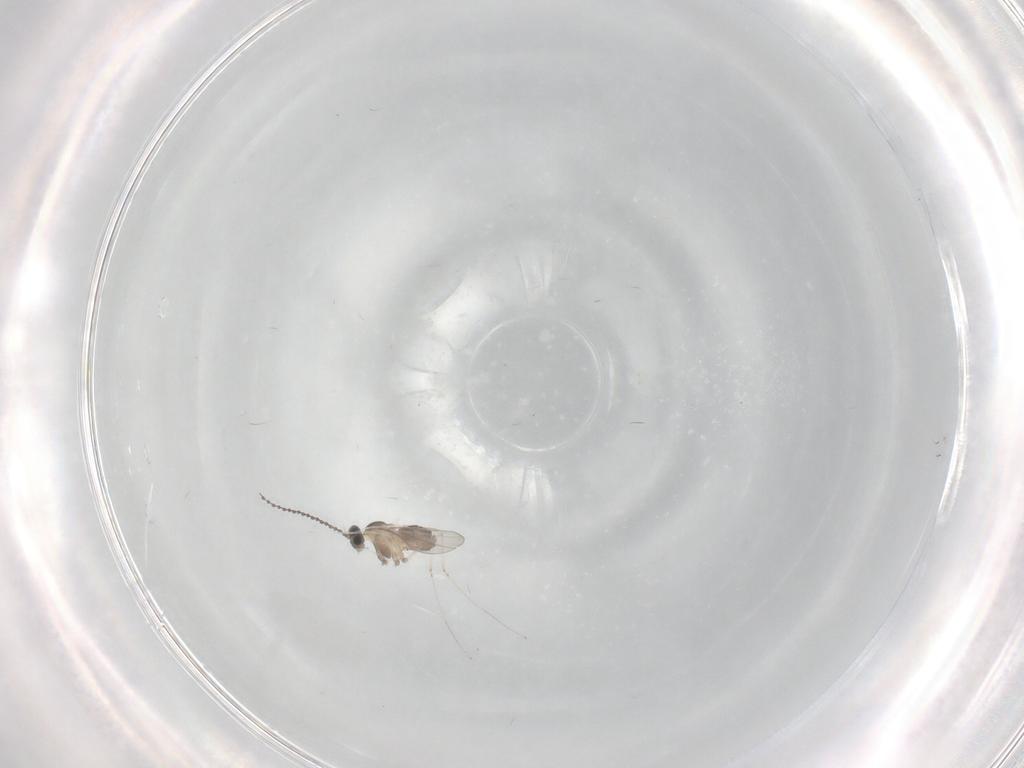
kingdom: Animalia
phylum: Arthropoda
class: Insecta
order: Diptera
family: Cecidomyiidae
